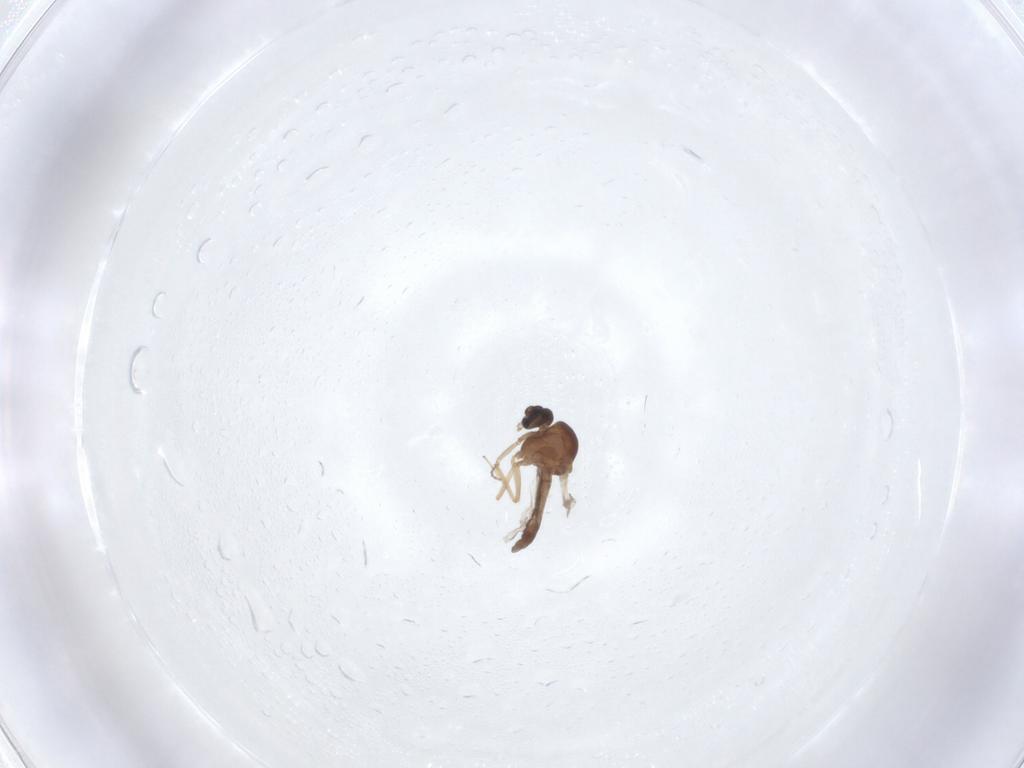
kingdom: Animalia
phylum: Arthropoda
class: Insecta
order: Diptera
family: Ceratopogonidae
